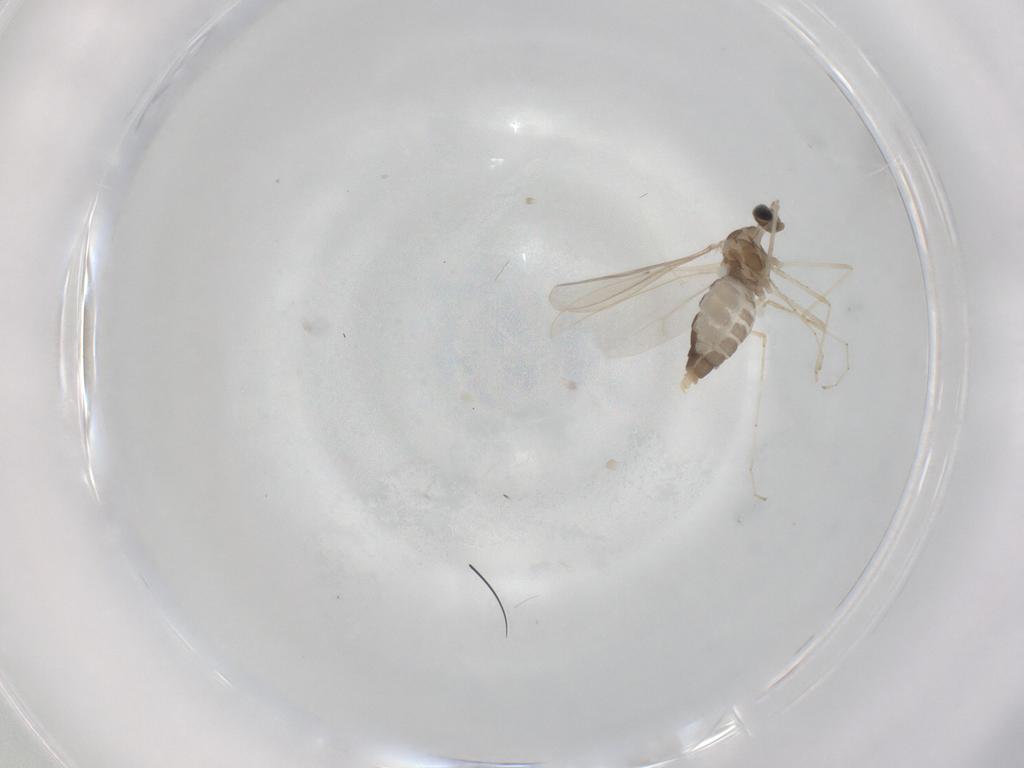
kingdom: Animalia
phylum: Arthropoda
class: Insecta
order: Diptera
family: Cecidomyiidae
